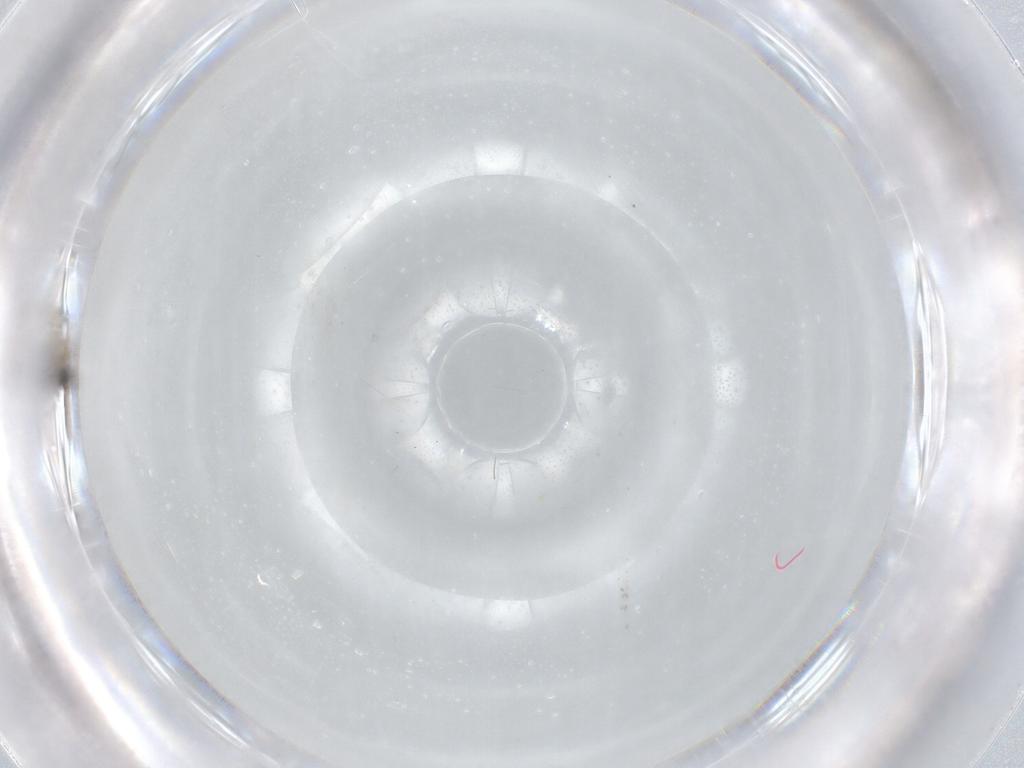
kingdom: Animalia
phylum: Arthropoda
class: Insecta
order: Diptera
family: Cecidomyiidae
